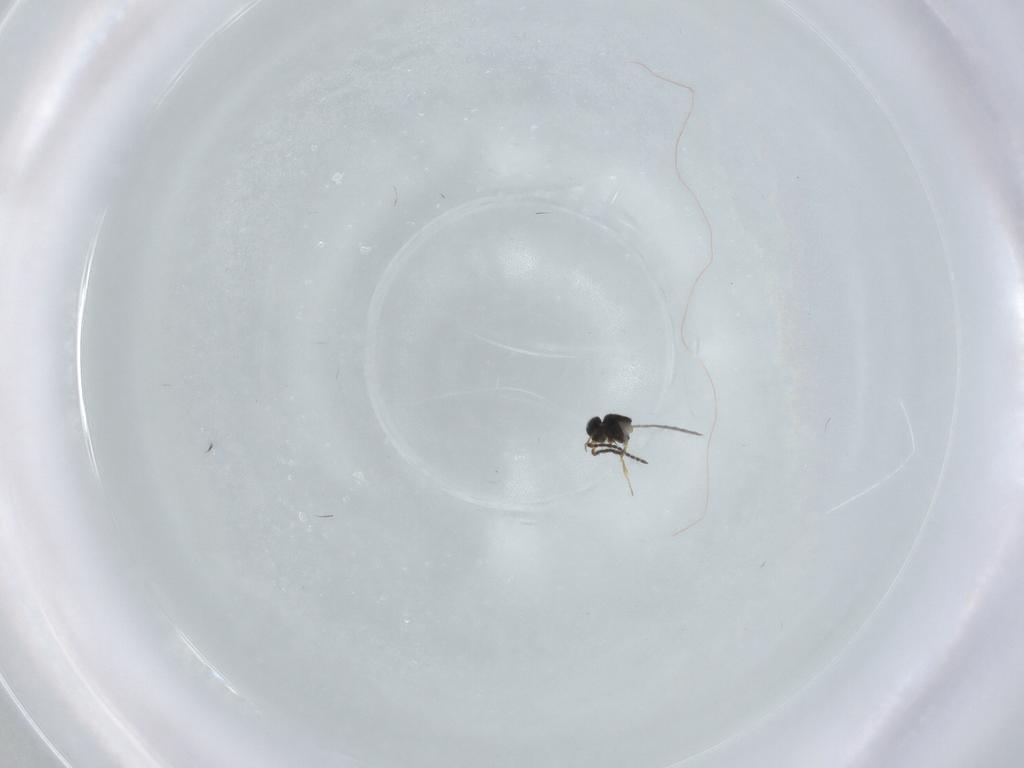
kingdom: Animalia
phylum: Arthropoda
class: Insecta
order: Hymenoptera
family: Scelionidae
